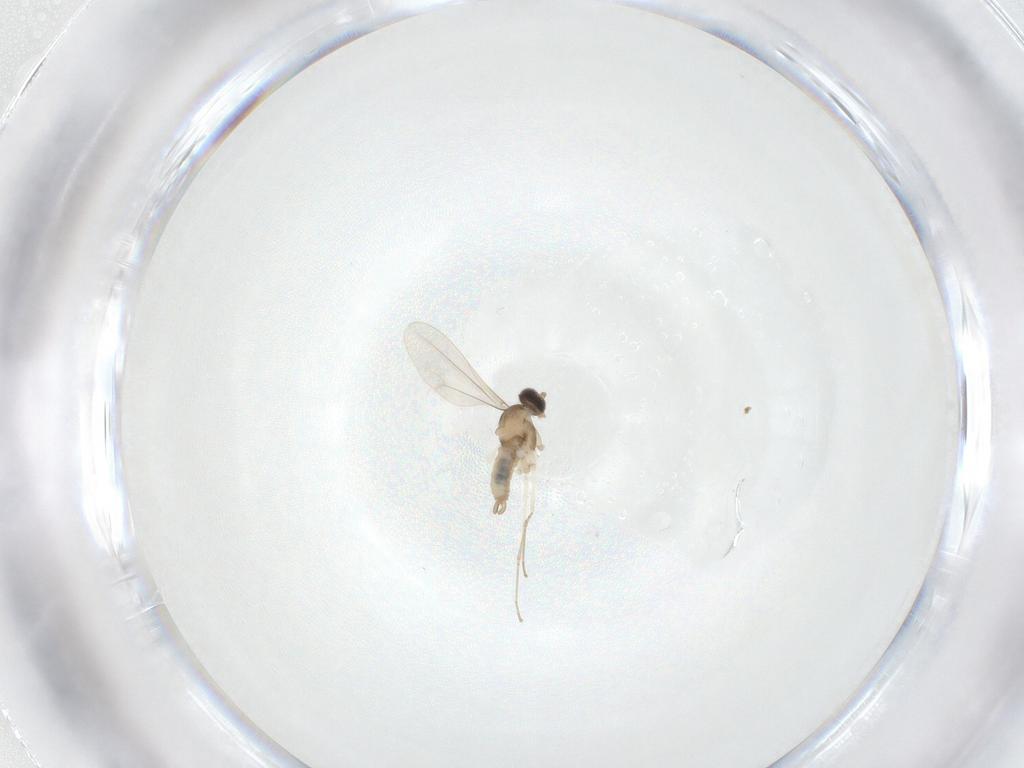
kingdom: Animalia
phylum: Arthropoda
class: Insecta
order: Diptera
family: Cecidomyiidae
